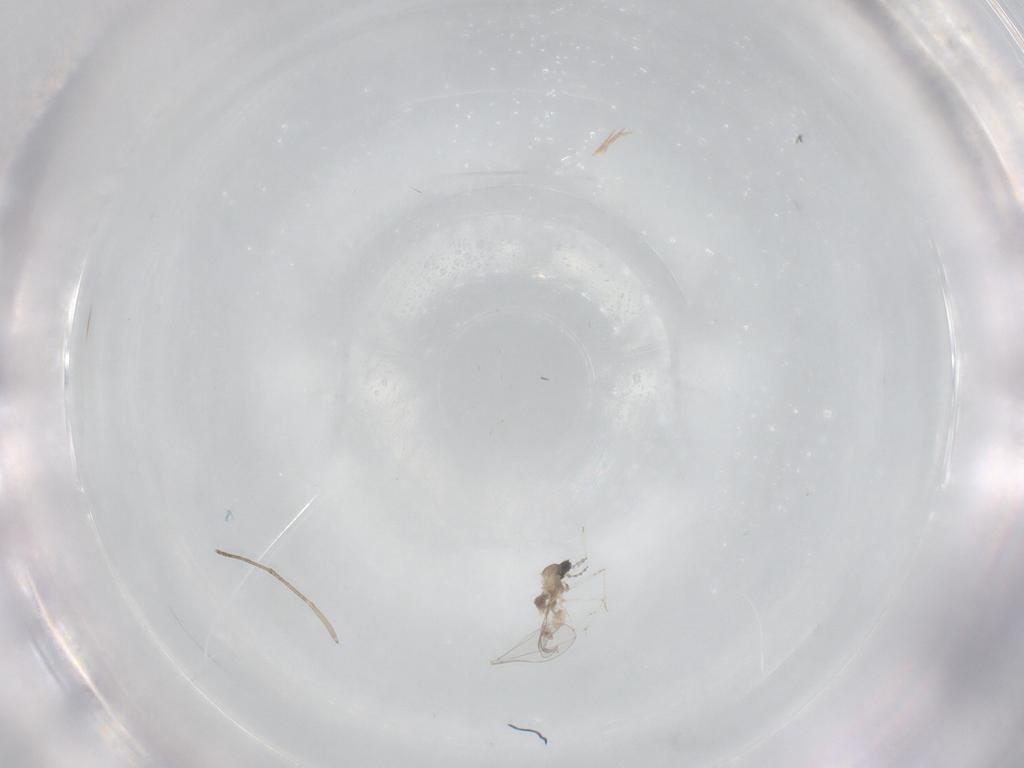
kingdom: Animalia
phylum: Arthropoda
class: Insecta
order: Diptera
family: Cecidomyiidae
